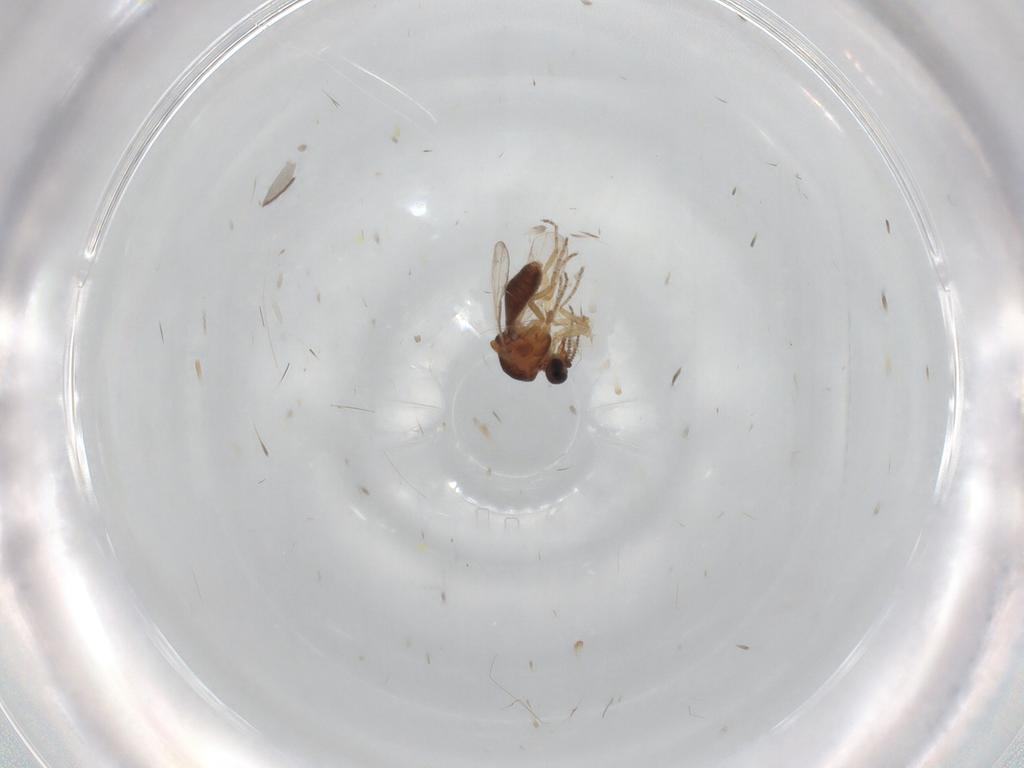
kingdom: Animalia
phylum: Arthropoda
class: Insecta
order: Diptera
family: Ceratopogonidae
